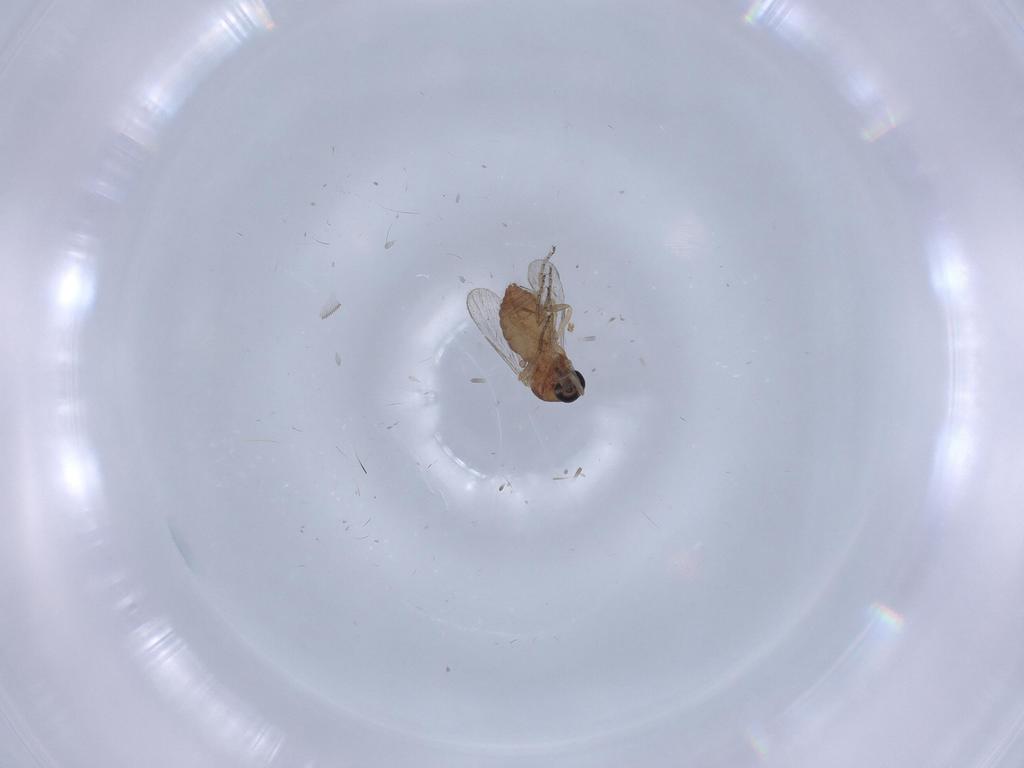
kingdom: Animalia
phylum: Arthropoda
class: Insecta
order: Diptera
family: Ceratopogonidae
